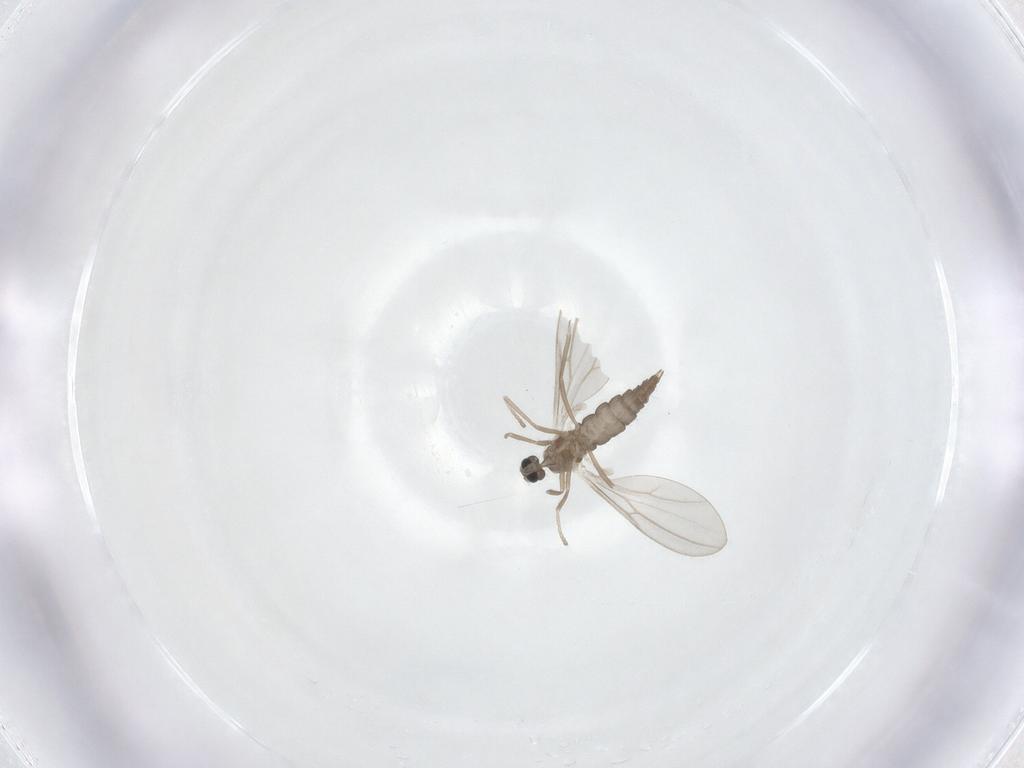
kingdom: Animalia
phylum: Arthropoda
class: Insecta
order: Diptera
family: Cecidomyiidae
